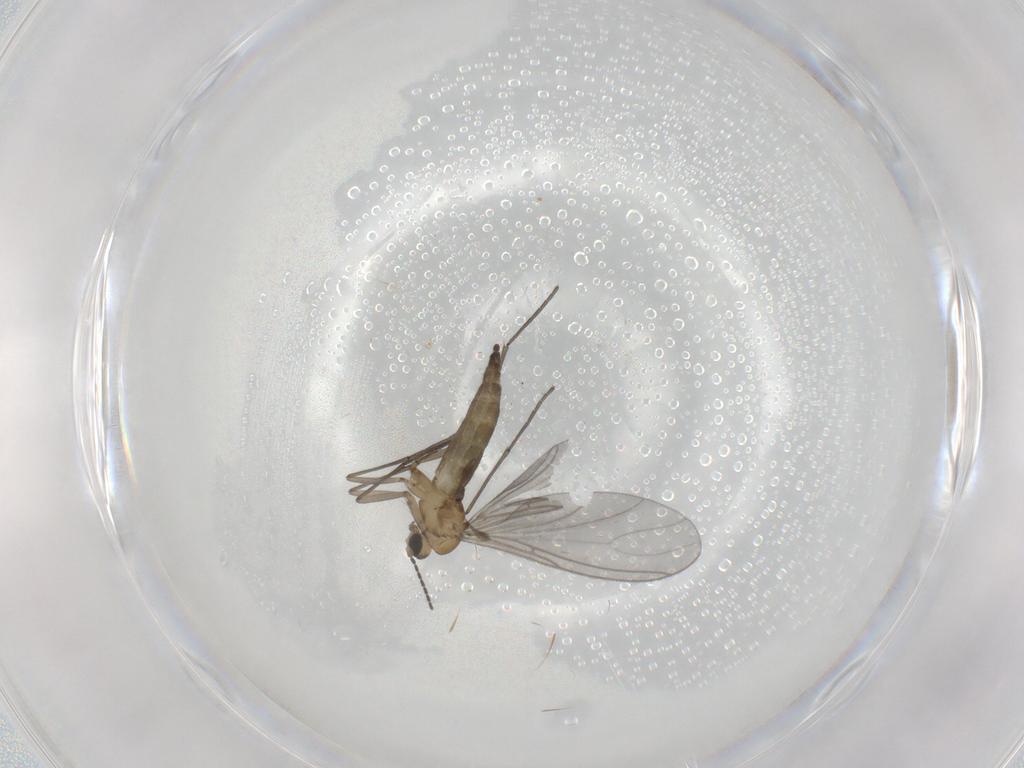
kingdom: Animalia
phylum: Arthropoda
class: Insecta
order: Diptera
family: Sciaridae
